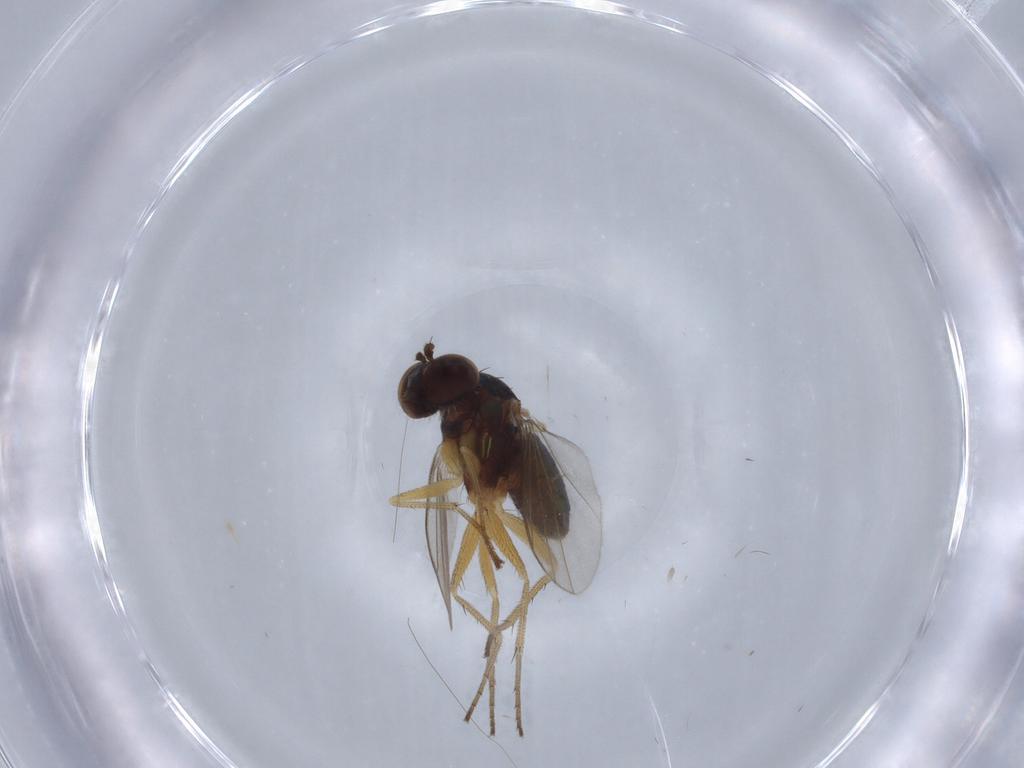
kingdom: Animalia
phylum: Arthropoda
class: Insecta
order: Diptera
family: Dolichopodidae
